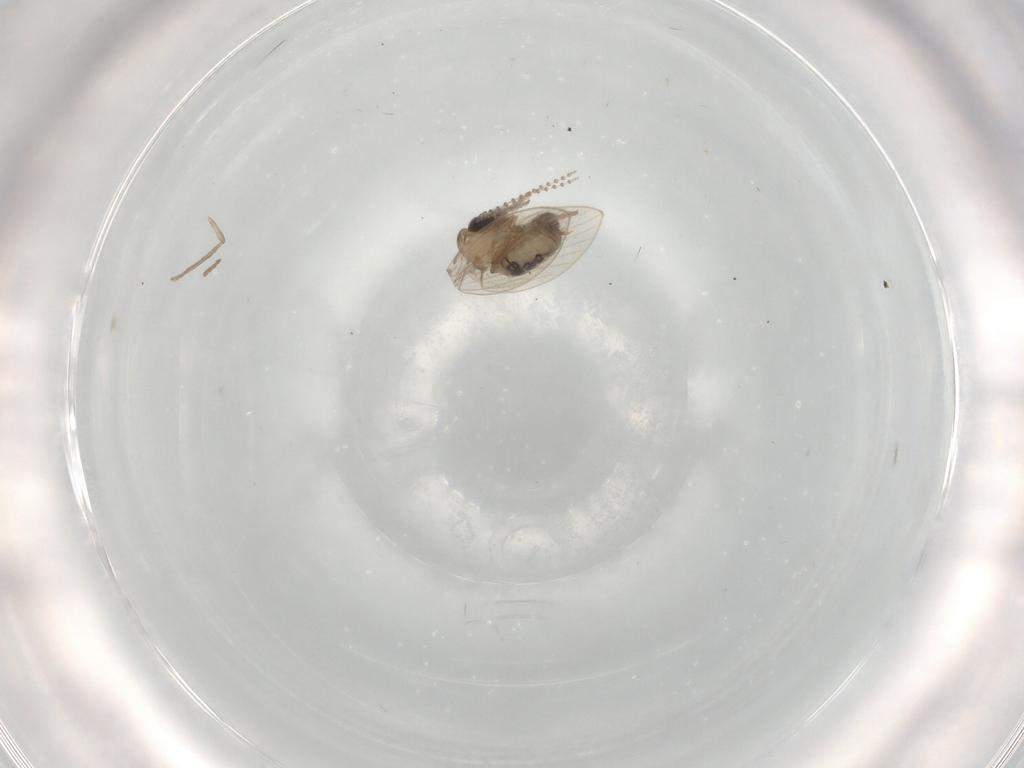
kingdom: Animalia
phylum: Arthropoda
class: Insecta
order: Diptera
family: Psychodidae
